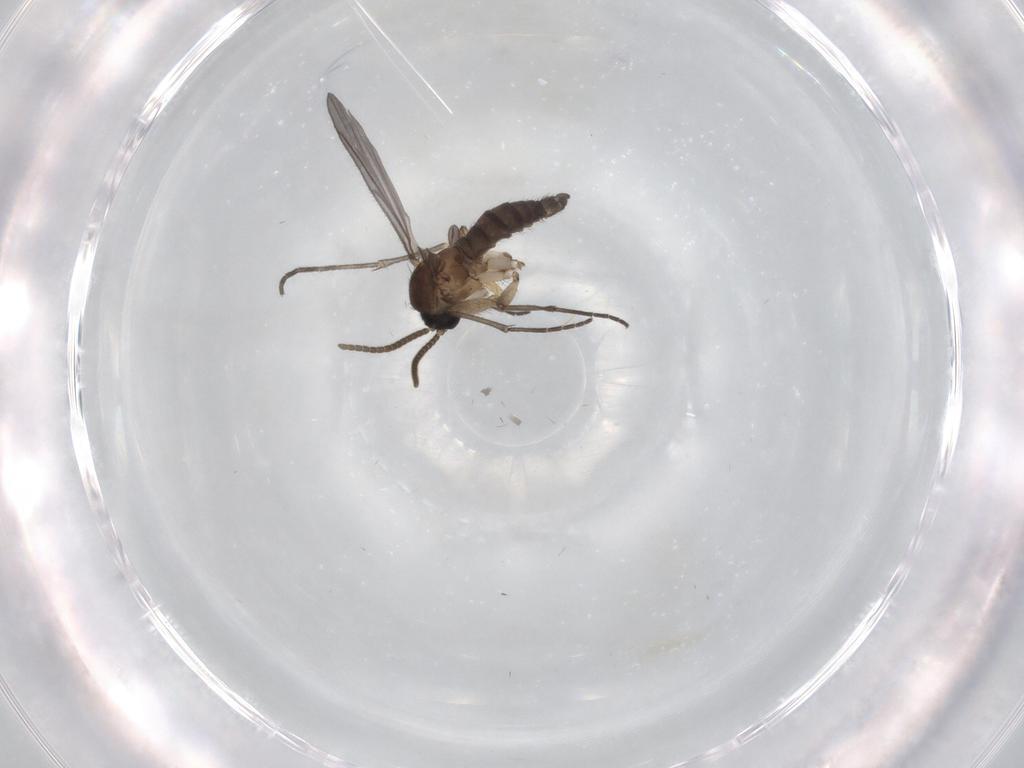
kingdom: Animalia
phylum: Arthropoda
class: Insecta
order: Diptera
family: Sciaridae
